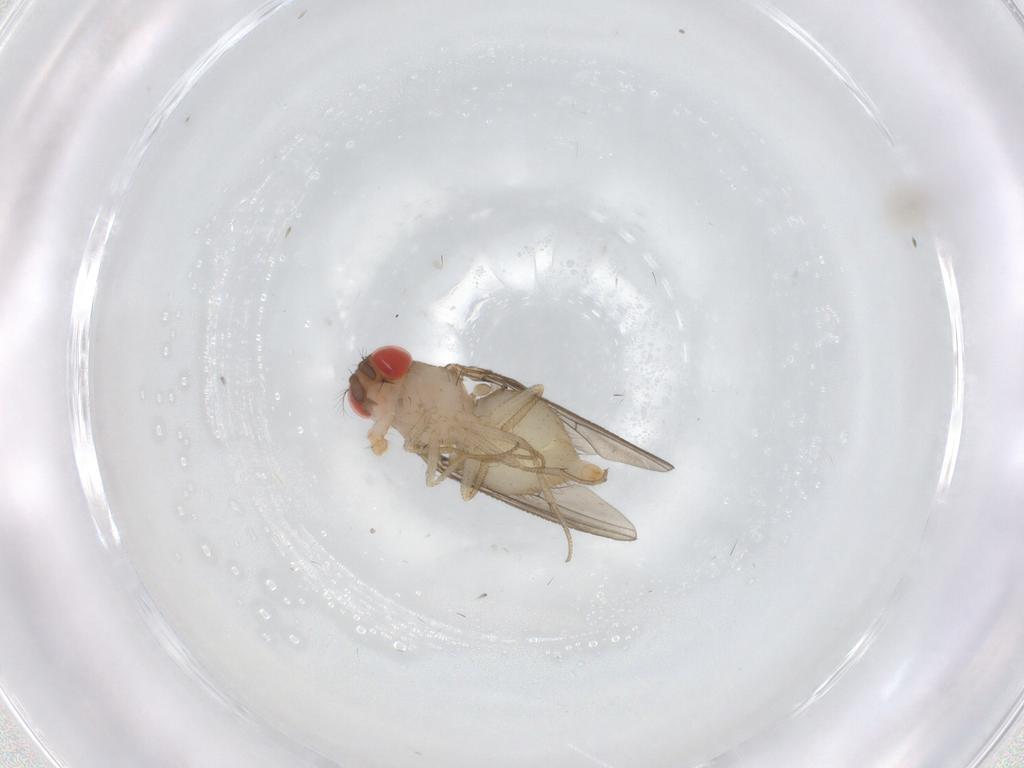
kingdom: Animalia
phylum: Arthropoda
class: Insecta
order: Diptera
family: Drosophilidae
